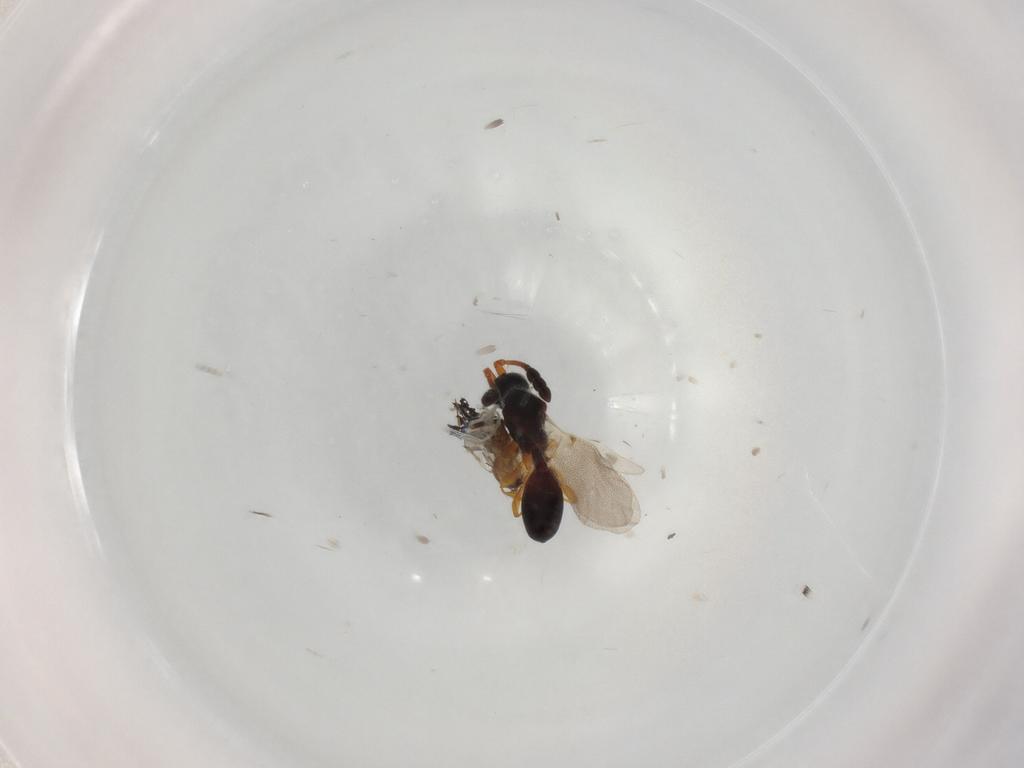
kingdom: Animalia
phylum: Arthropoda
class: Insecta
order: Hymenoptera
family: Diapriidae
